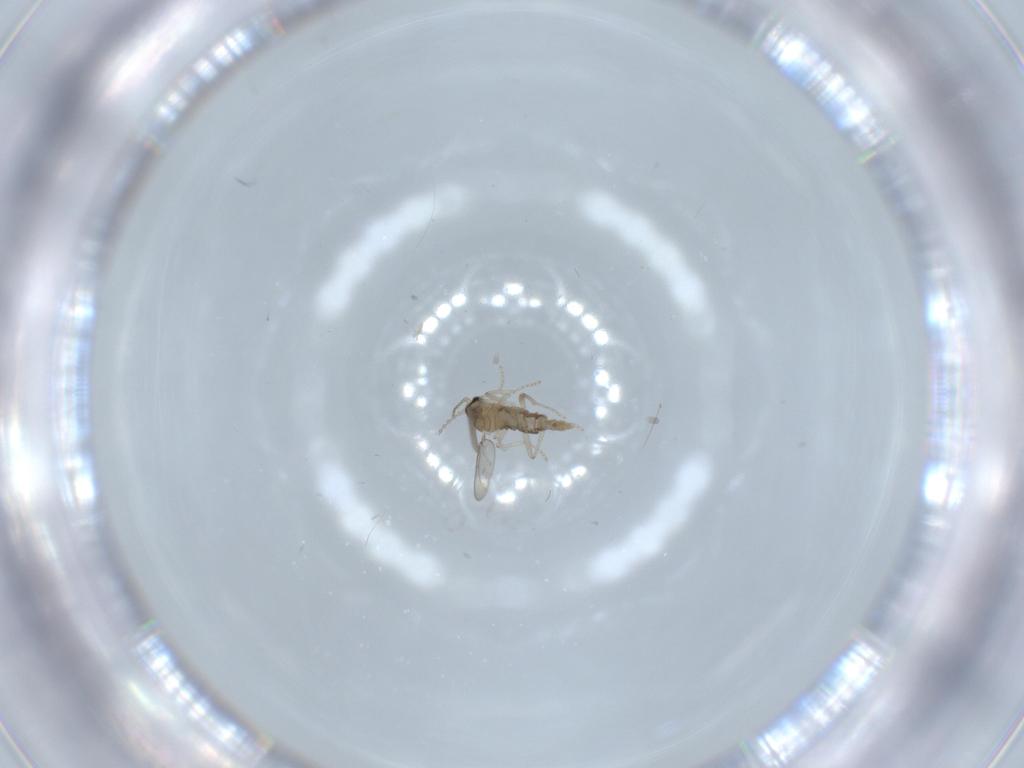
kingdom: Animalia
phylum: Arthropoda
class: Insecta
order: Diptera
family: Cecidomyiidae
